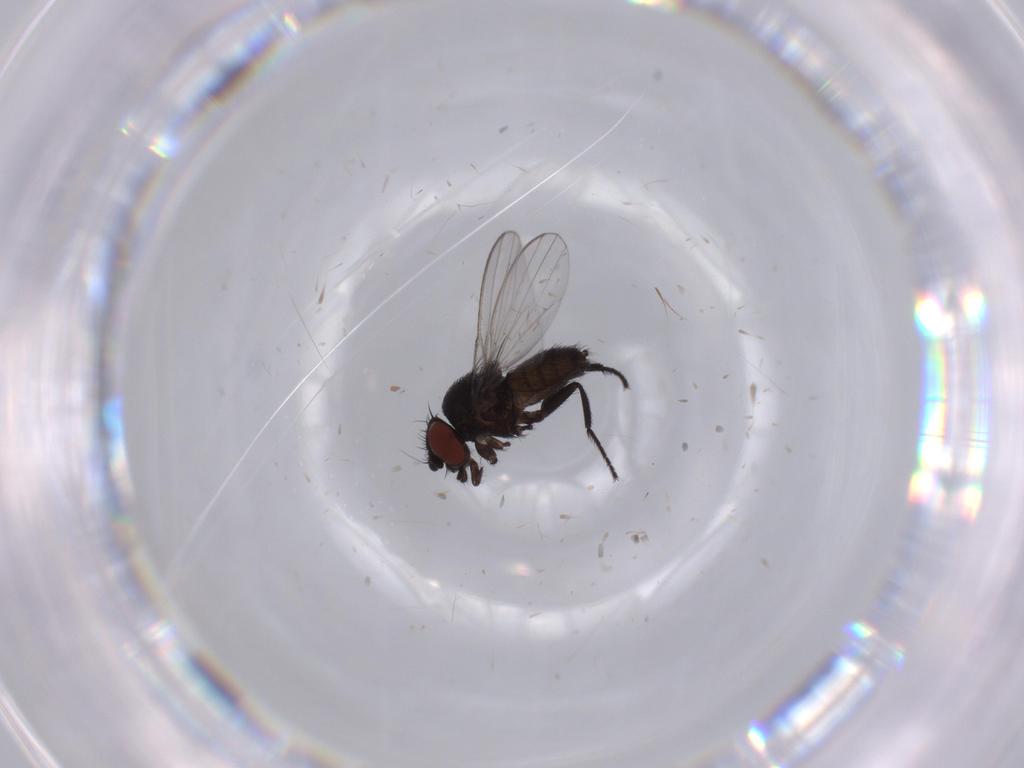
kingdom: Animalia
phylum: Arthropoda
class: Insecta
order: Diptera
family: Milichiidae
